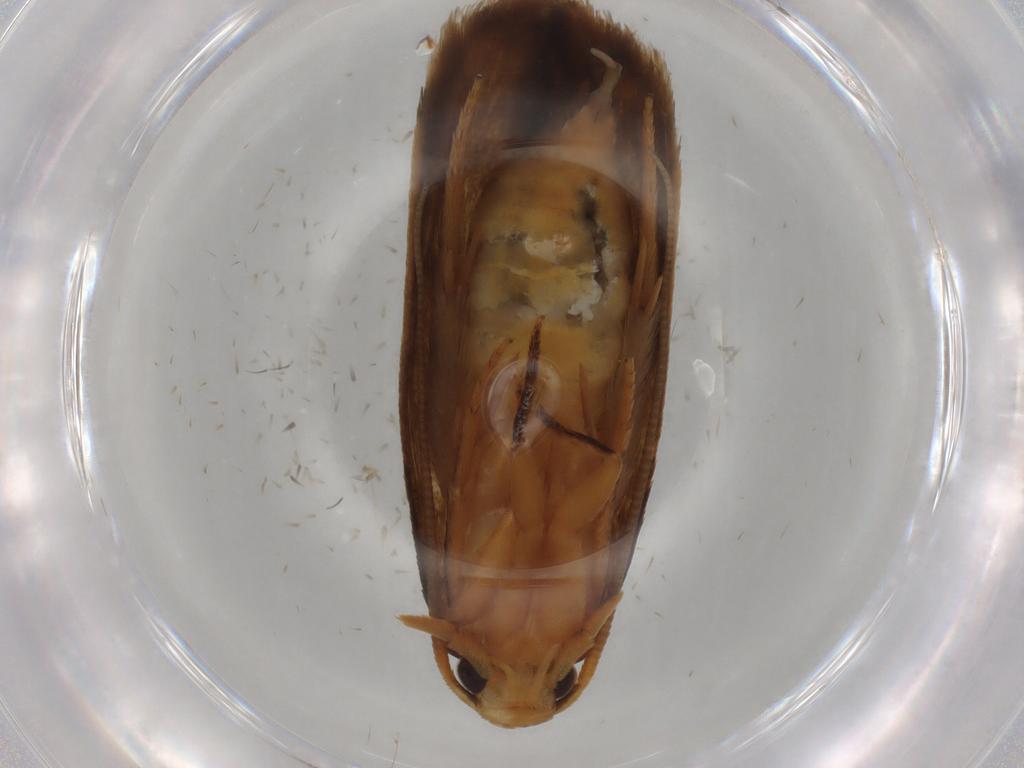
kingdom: Animalia
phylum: Arthropoda
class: Insecta
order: Lepidoptera
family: Tineidae
